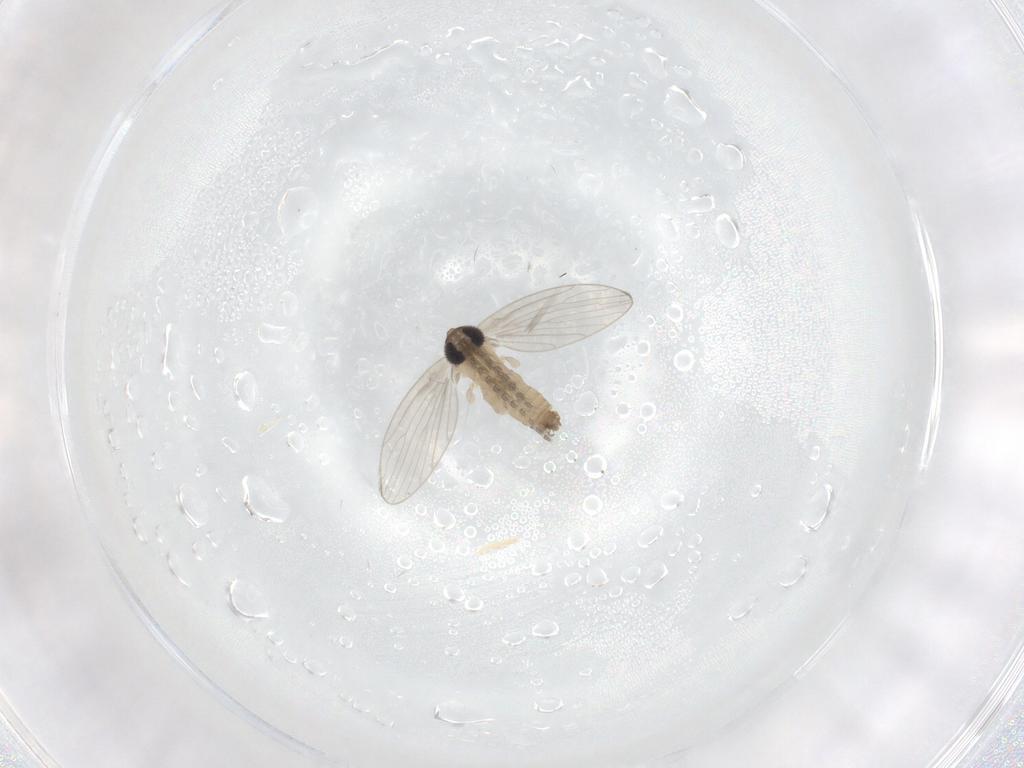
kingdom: Animalia
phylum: Arthropoda
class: Insecta
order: Diptera
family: Psychodidae
